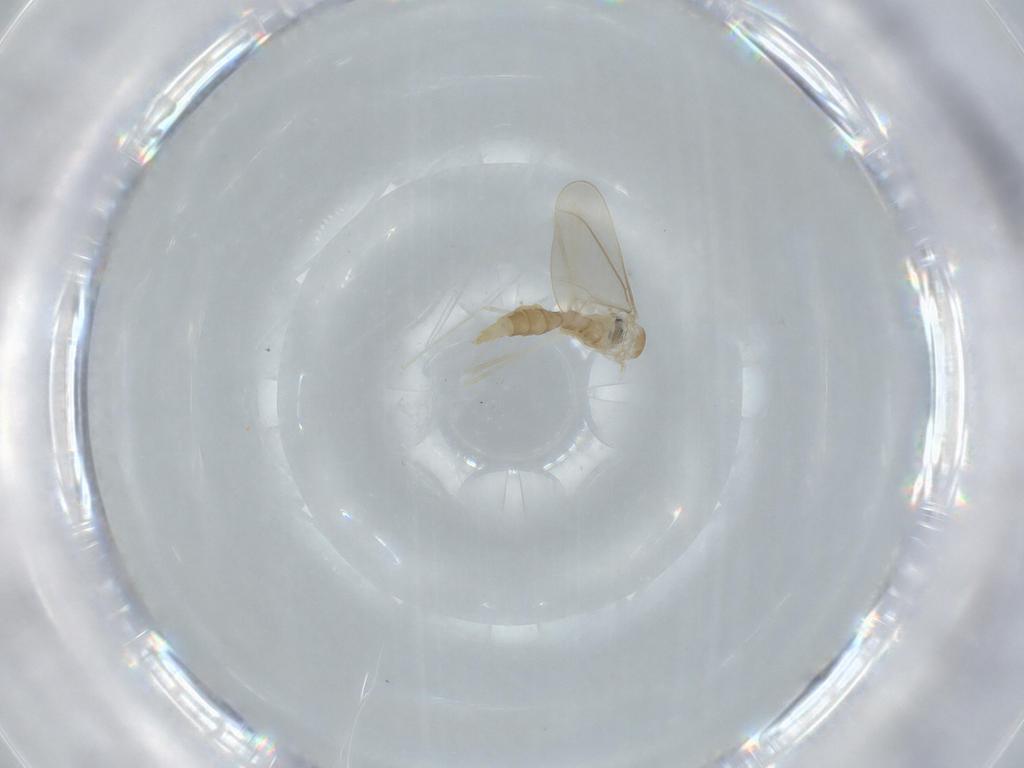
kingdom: Animalia
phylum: Arthropoda
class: Insecta
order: Diptera
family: Cecidomyiidae
